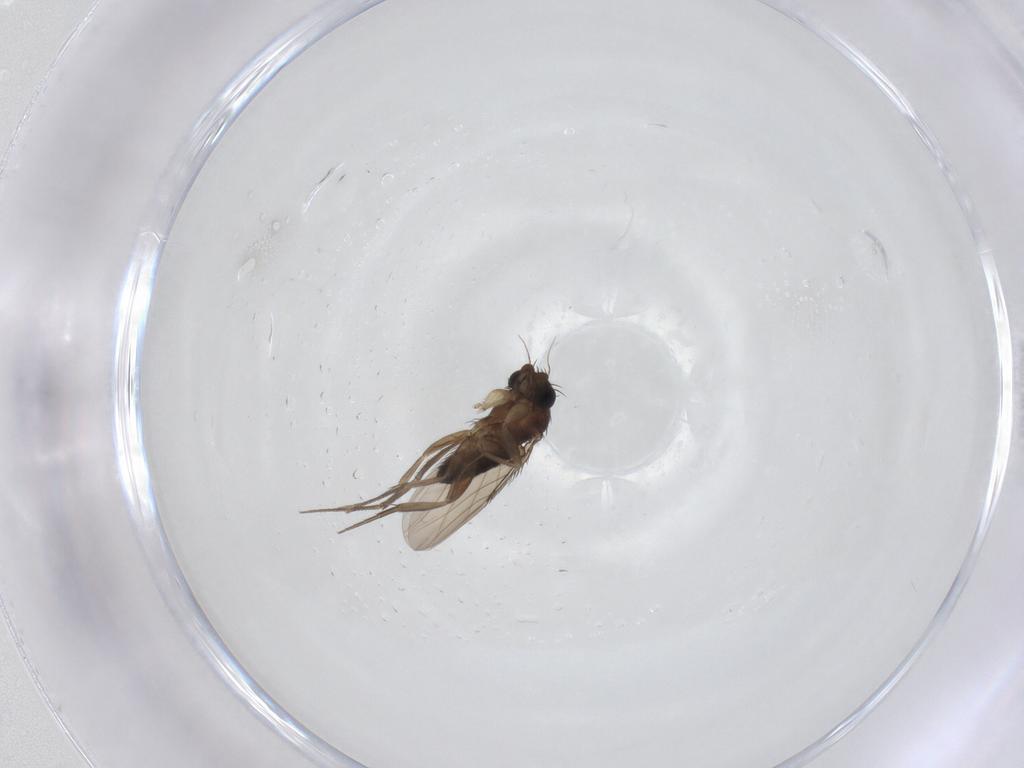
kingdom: Animalia
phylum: Arthropoda
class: Insecta
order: Diptera
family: Phoridae
